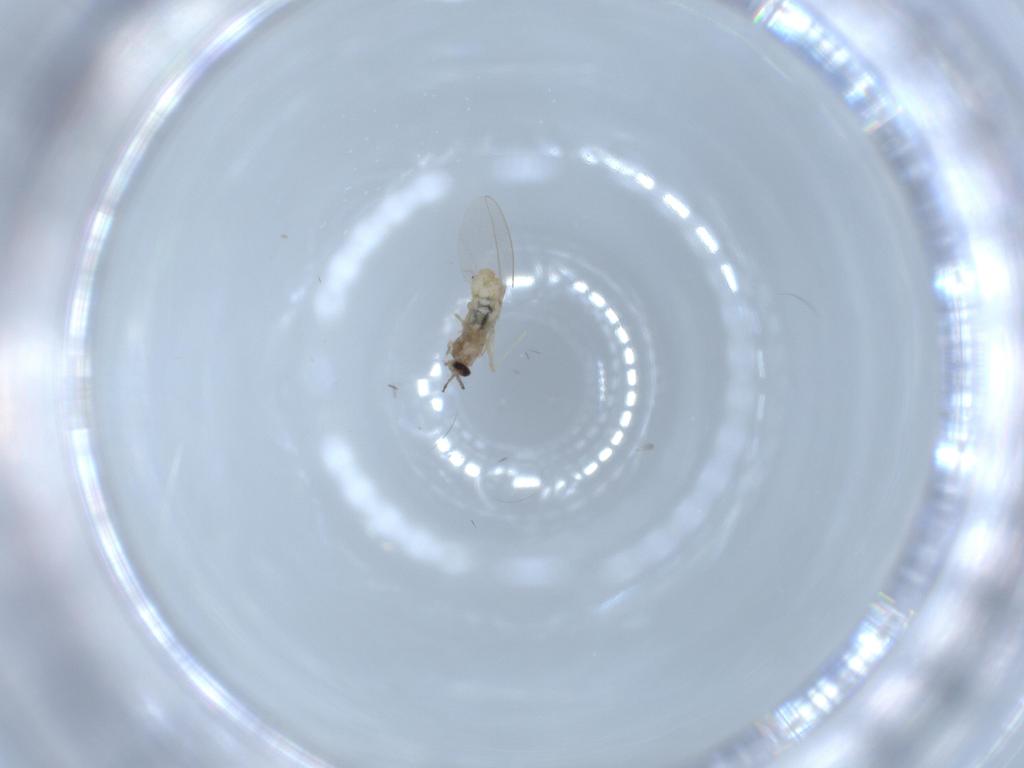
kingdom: Animalia
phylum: Arthropoda
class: Insecta
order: Diptera
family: Cecidomyiidae
